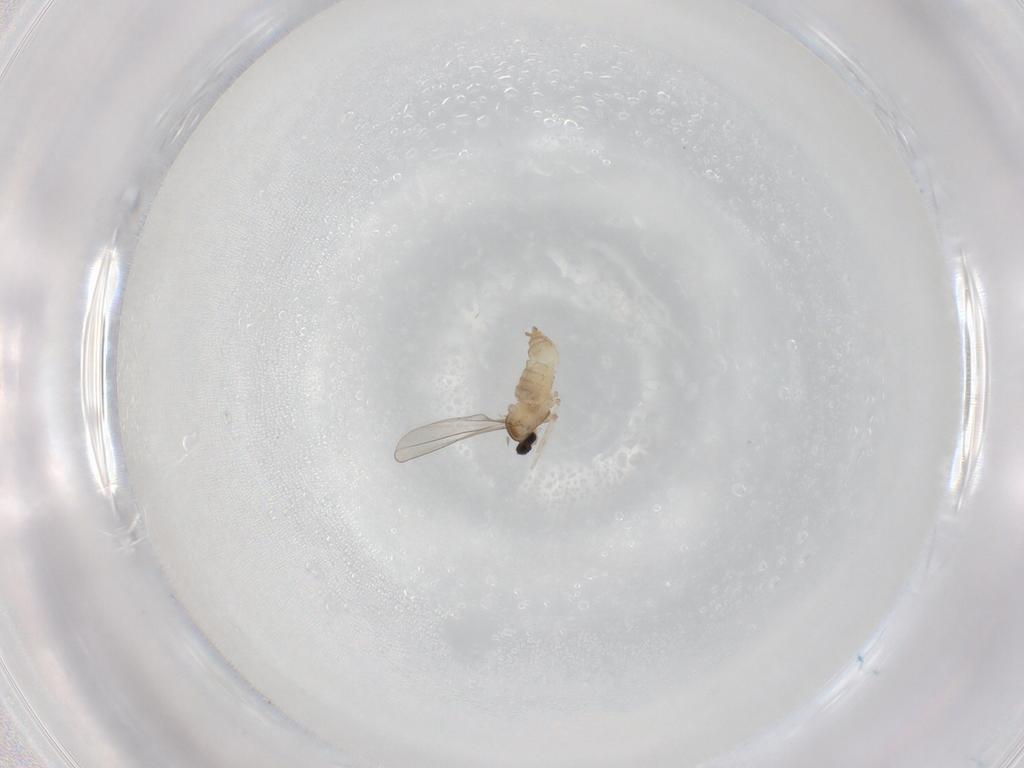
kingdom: Animalia
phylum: Arthropoda
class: Insecta
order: Diptera
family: Cecidomyiidae
